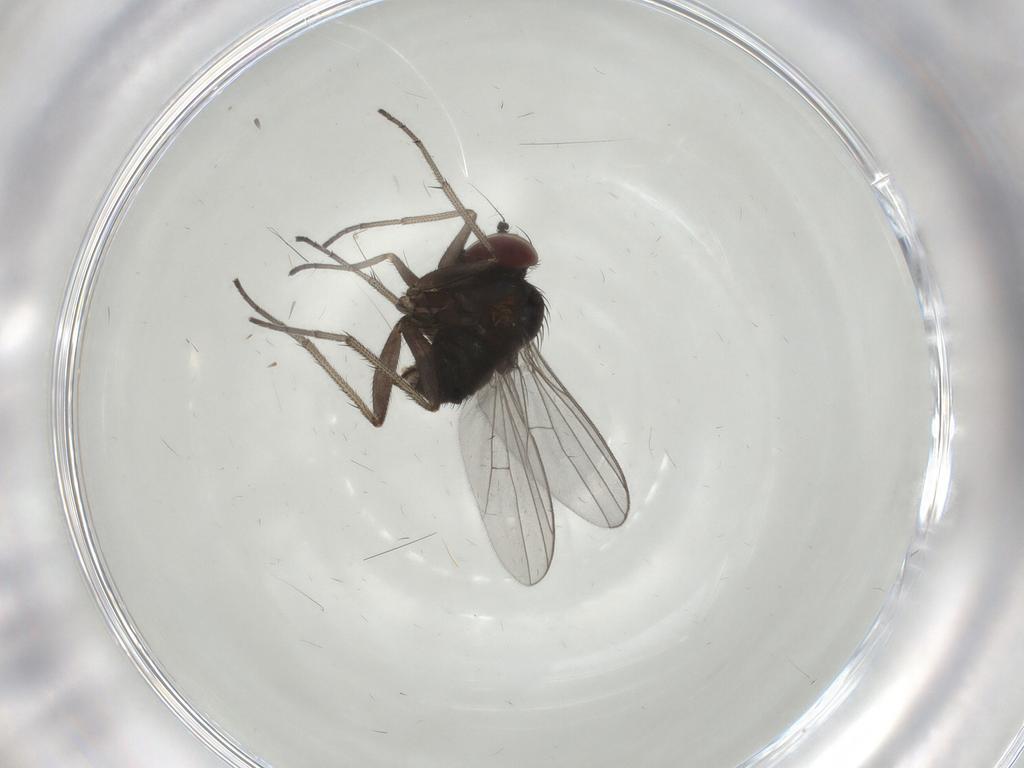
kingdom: Animalia
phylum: Arthropoda
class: Insecta
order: Diptera
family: Dolichopodidae
